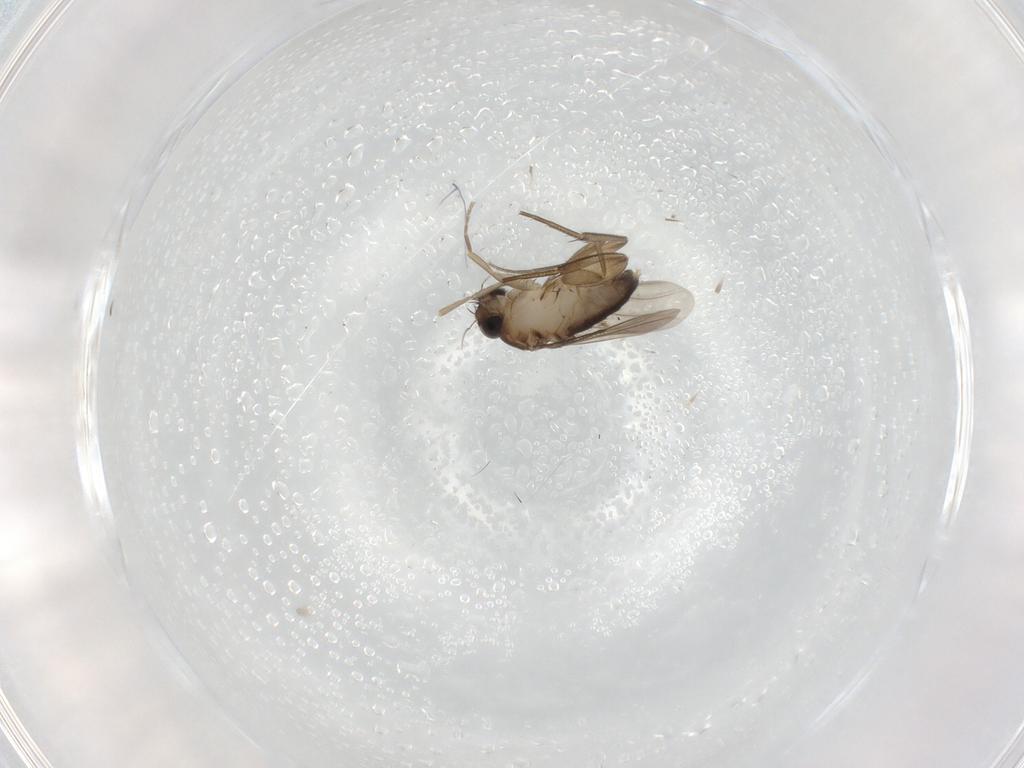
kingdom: Animalia
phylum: Arthropoda
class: Insecta
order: Diptera
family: Phoridae
